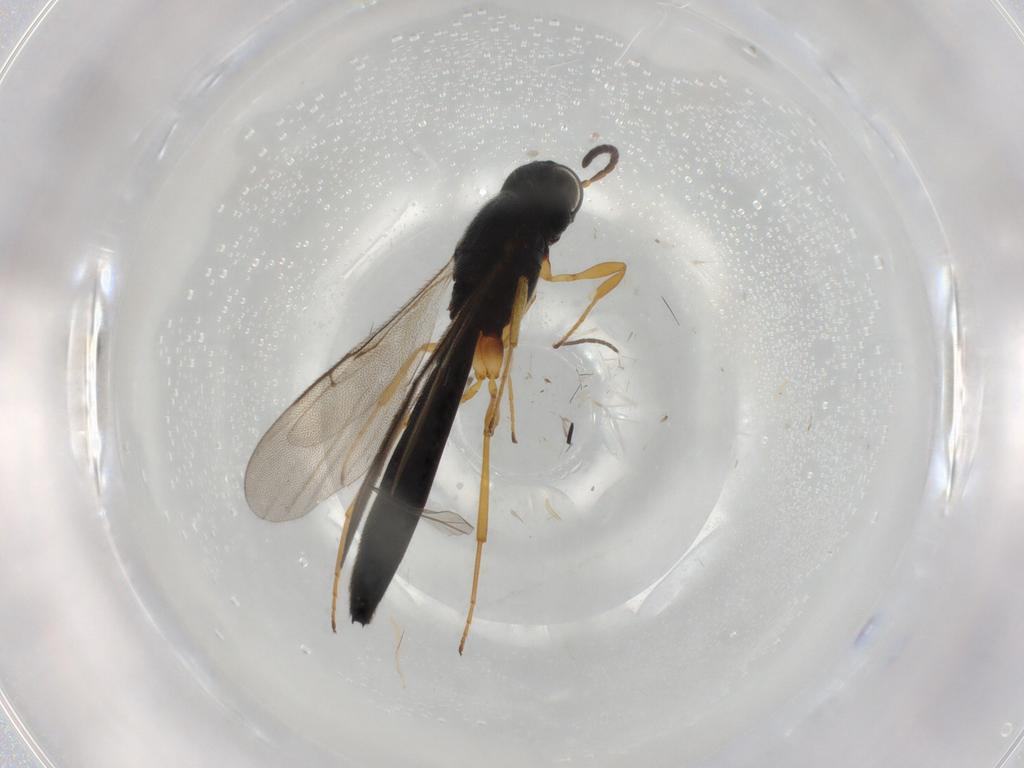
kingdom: Animalia
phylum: Arthropoda
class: Insecta
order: Hymenoptera
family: Scelionidae
